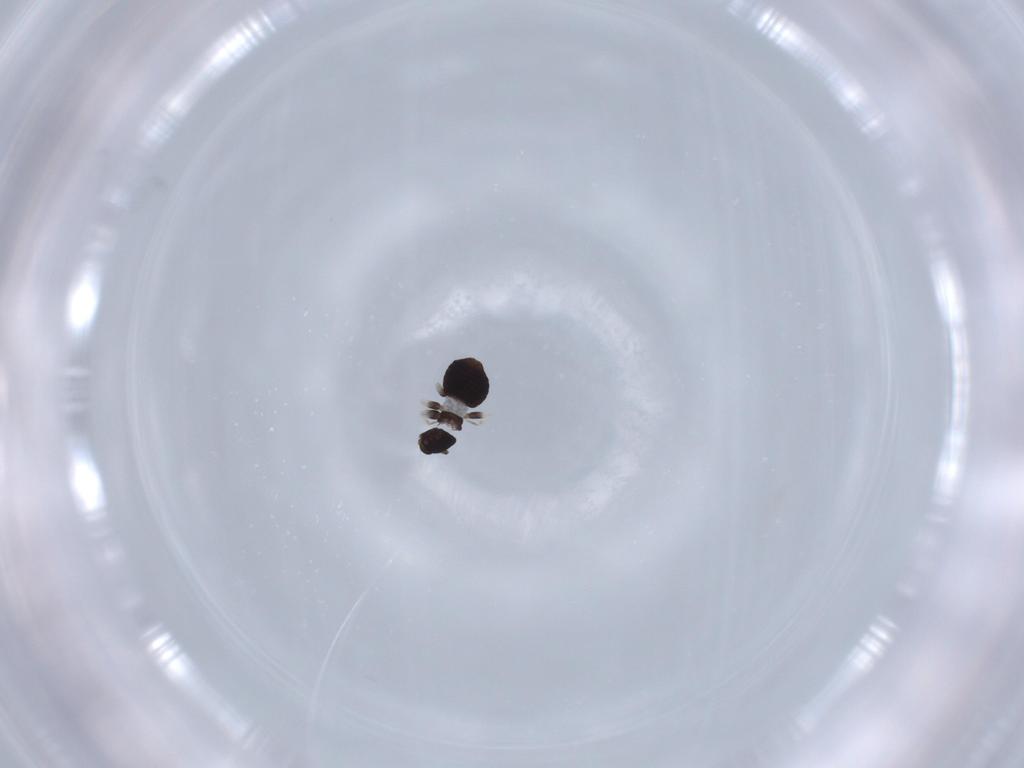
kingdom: Animalia
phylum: Arthropoda
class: Insecta
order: Psocodea
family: Lepidopsocidae
